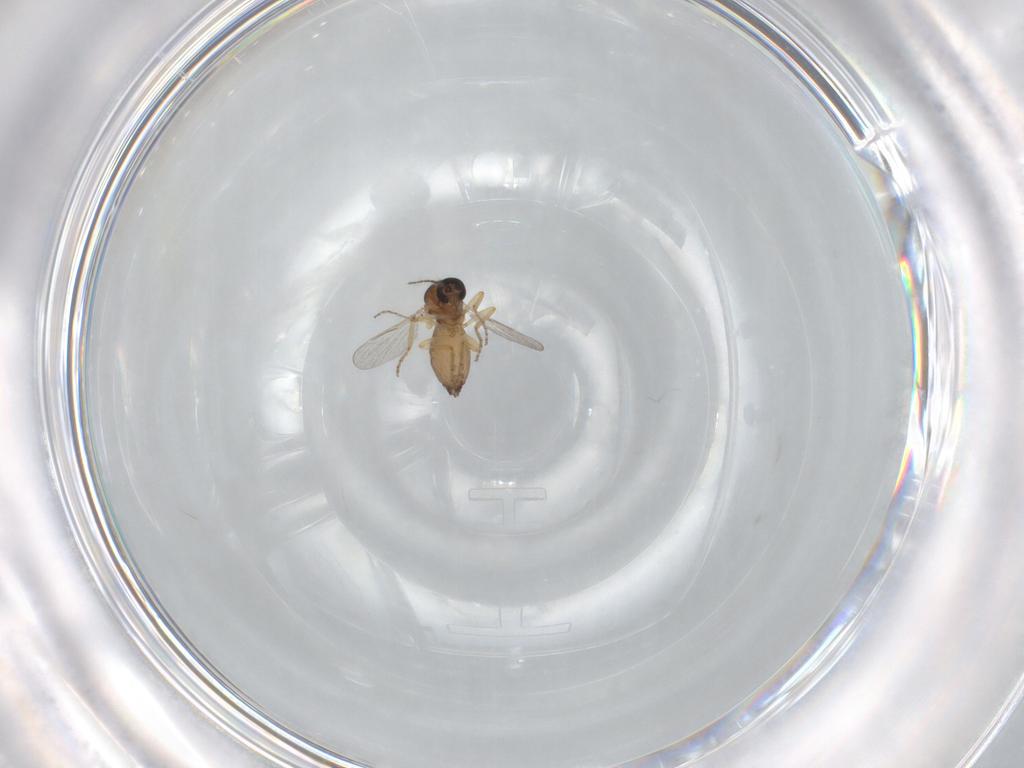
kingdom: Animalia
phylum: Arthropoda
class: Insecta
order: Diptera
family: Ceratopogonidae
